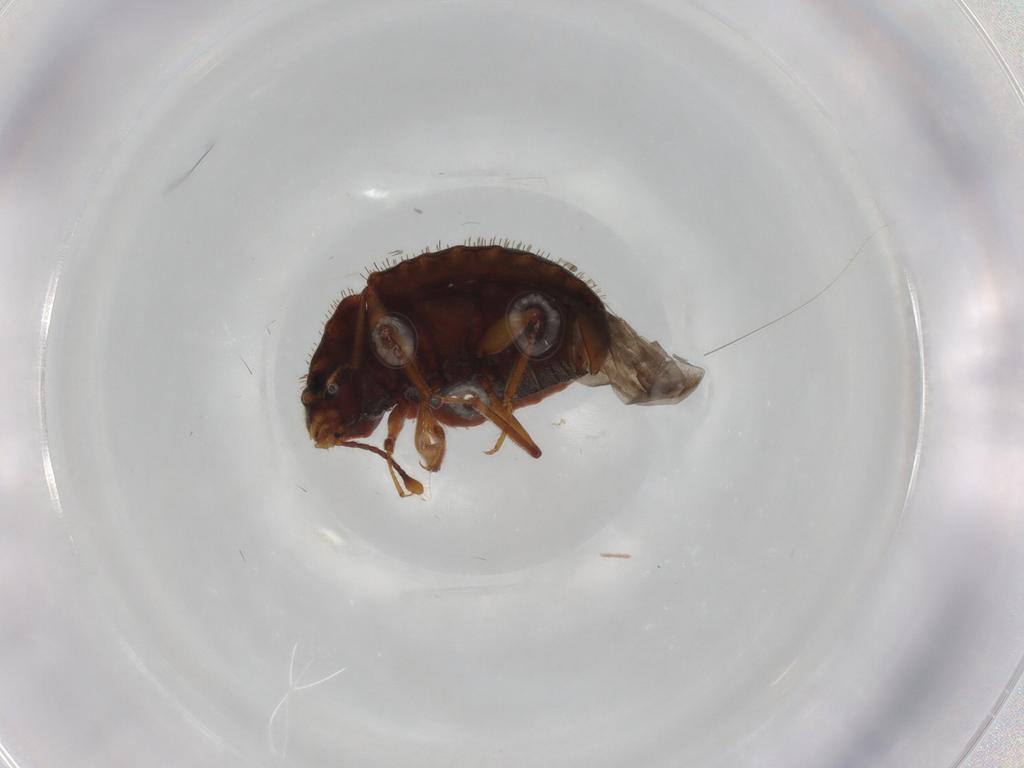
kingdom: Animalia
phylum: Arthropoda
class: Insecta
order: Coleoptera
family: Discolomatidae
